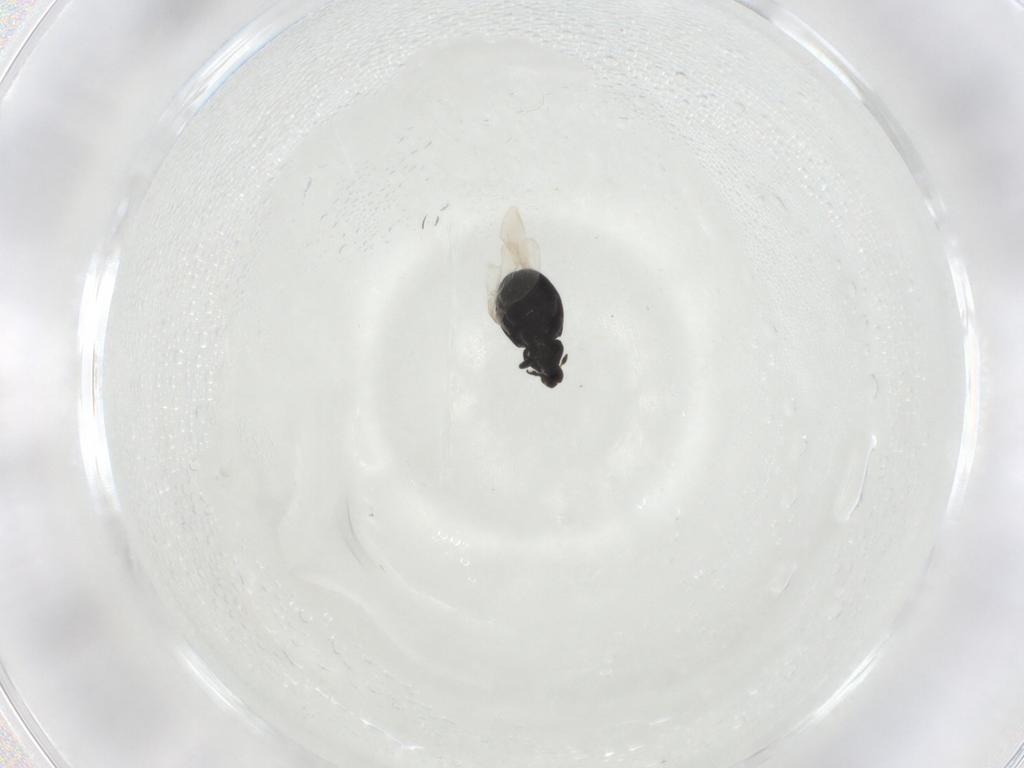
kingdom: Animalia
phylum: Arthropoda
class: Insecta
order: Coleoptera
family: Curculionidae
